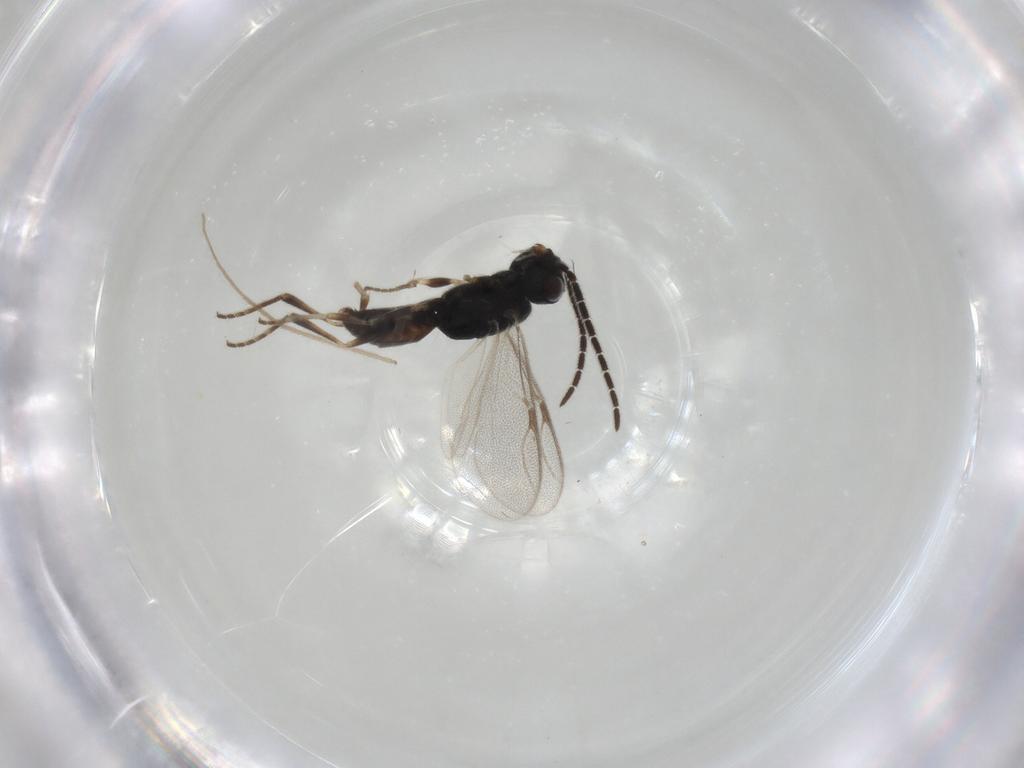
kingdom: Animalia
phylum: Arthropoda
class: Insecta
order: Hymenoptera
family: Dryinidae
